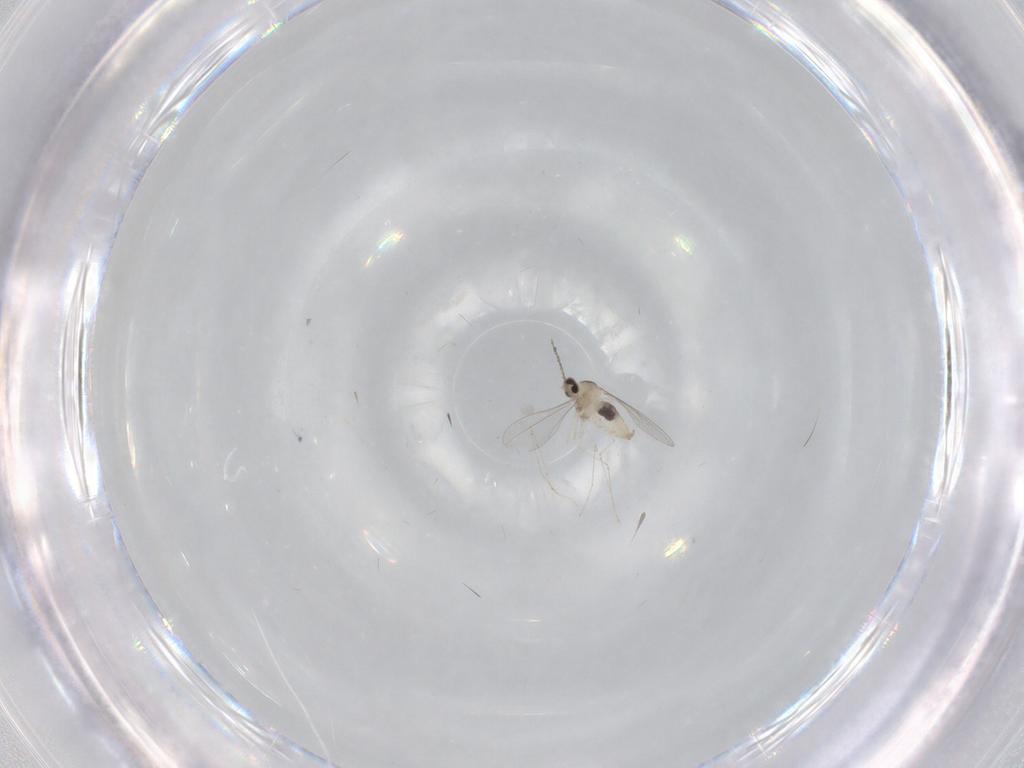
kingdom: Animalia
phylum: Arthropoda
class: Insecta
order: Diptera
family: Cecidomyiidae
